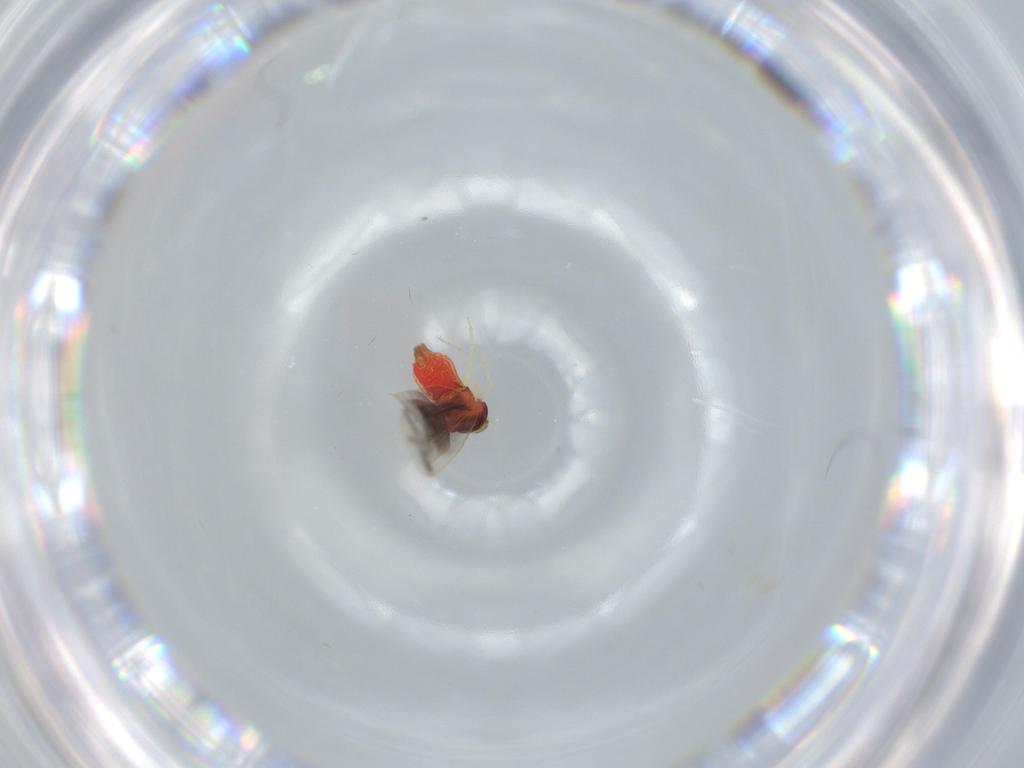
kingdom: Animalia
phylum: Arthropoda
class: Insecta
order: Hemiptera
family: Aleyrodidae
